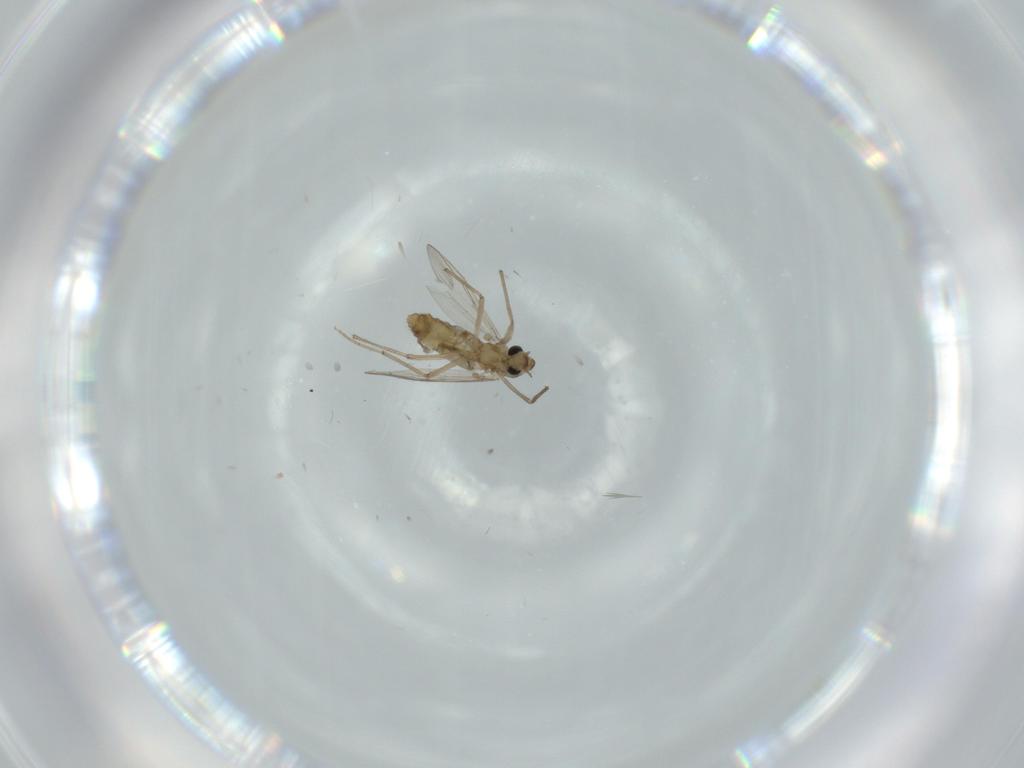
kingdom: Animalia
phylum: Arthropoda
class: Insecta
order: Diptera
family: Chironomidae
